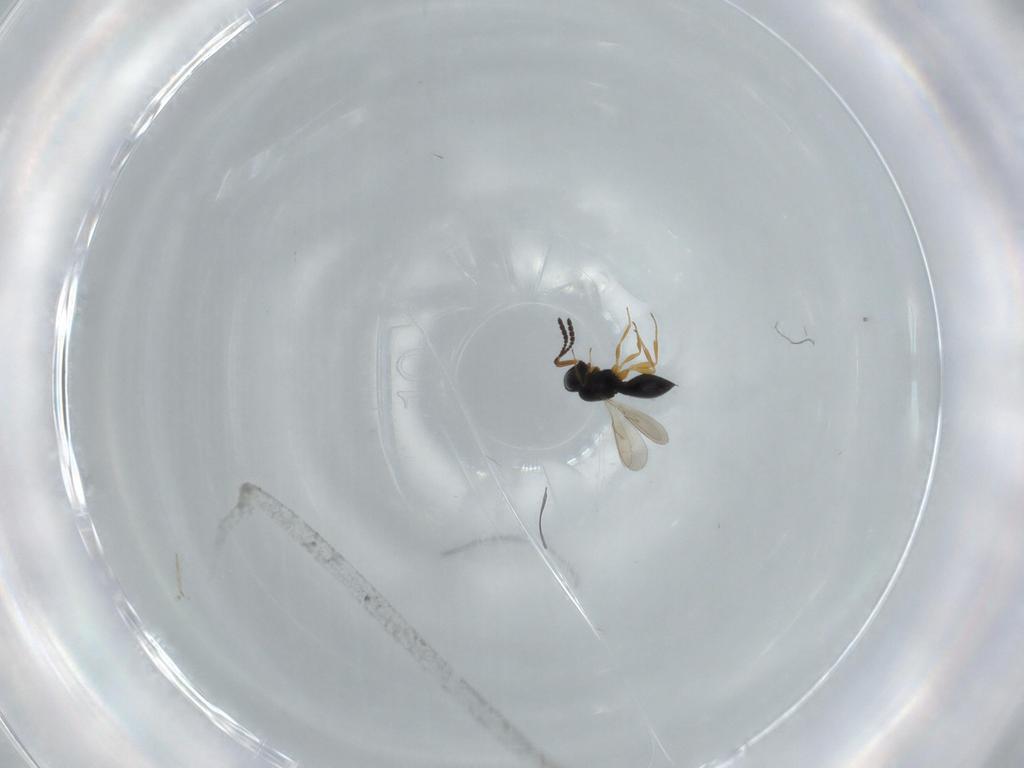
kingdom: Animalia
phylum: Arthropoda
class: Insecta
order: Hymenoptera
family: Scelionidae
